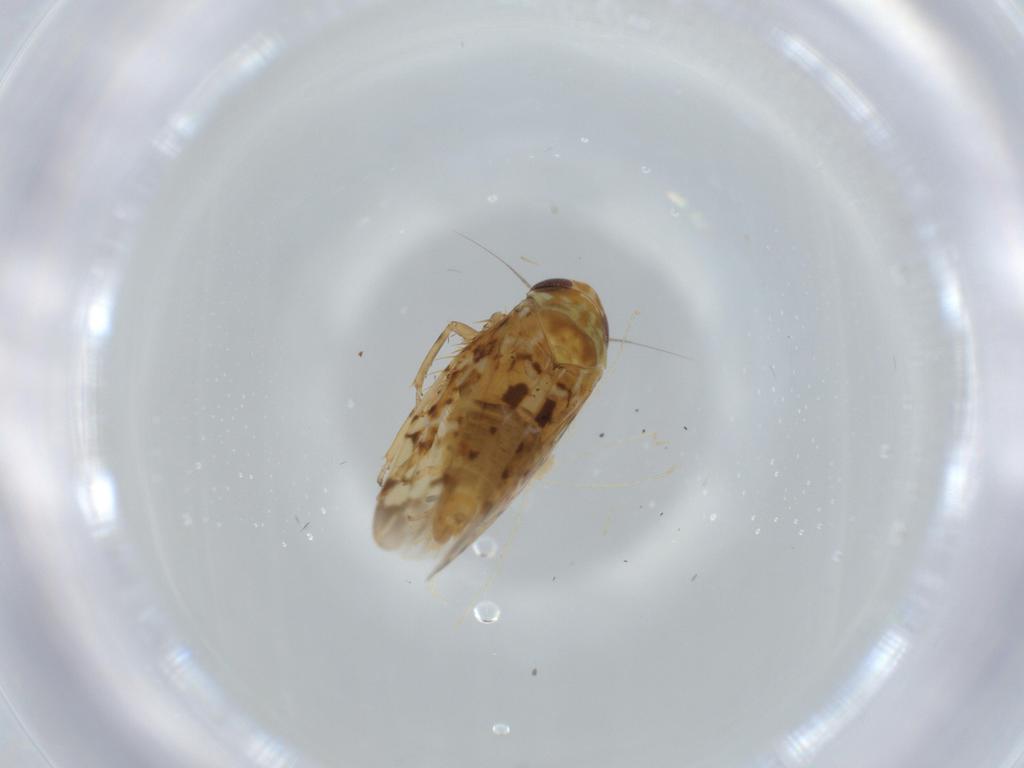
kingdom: Animalia
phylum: Arthropoda
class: Insecta
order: Hemiptera
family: Cicadellidae
